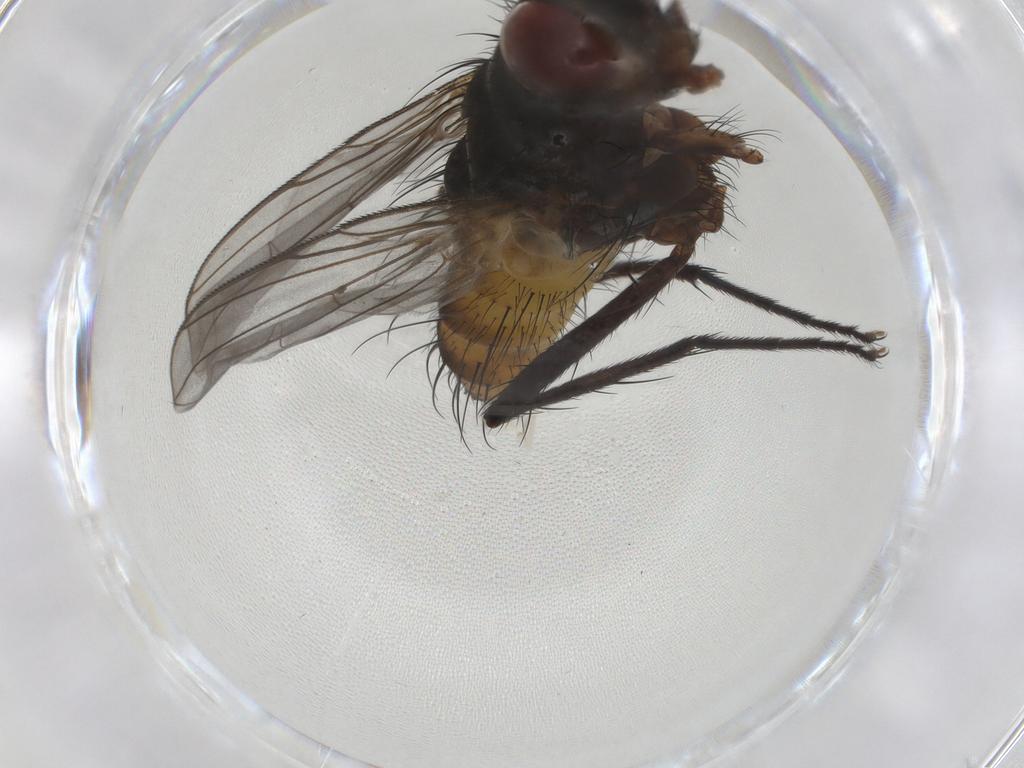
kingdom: Animalia
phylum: Arthropoda
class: Insecta
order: Diptera
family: Tachinidae
